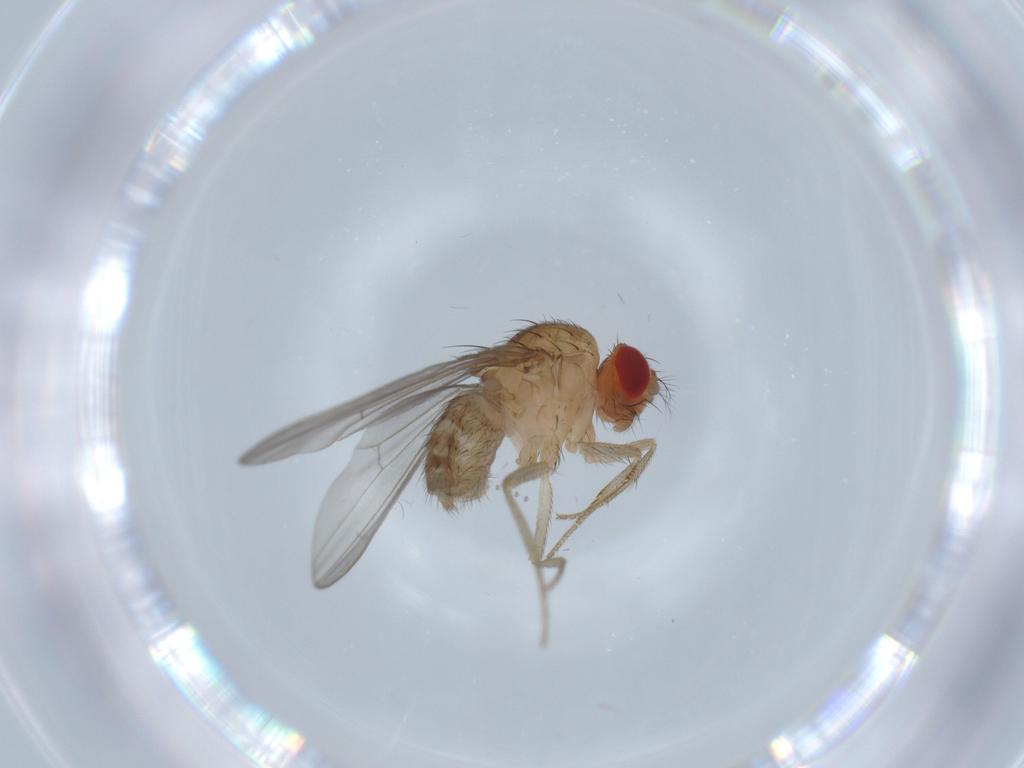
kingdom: Animalia
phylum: Arthropoda
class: Insecta
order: Diptera
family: Drosophilidae
